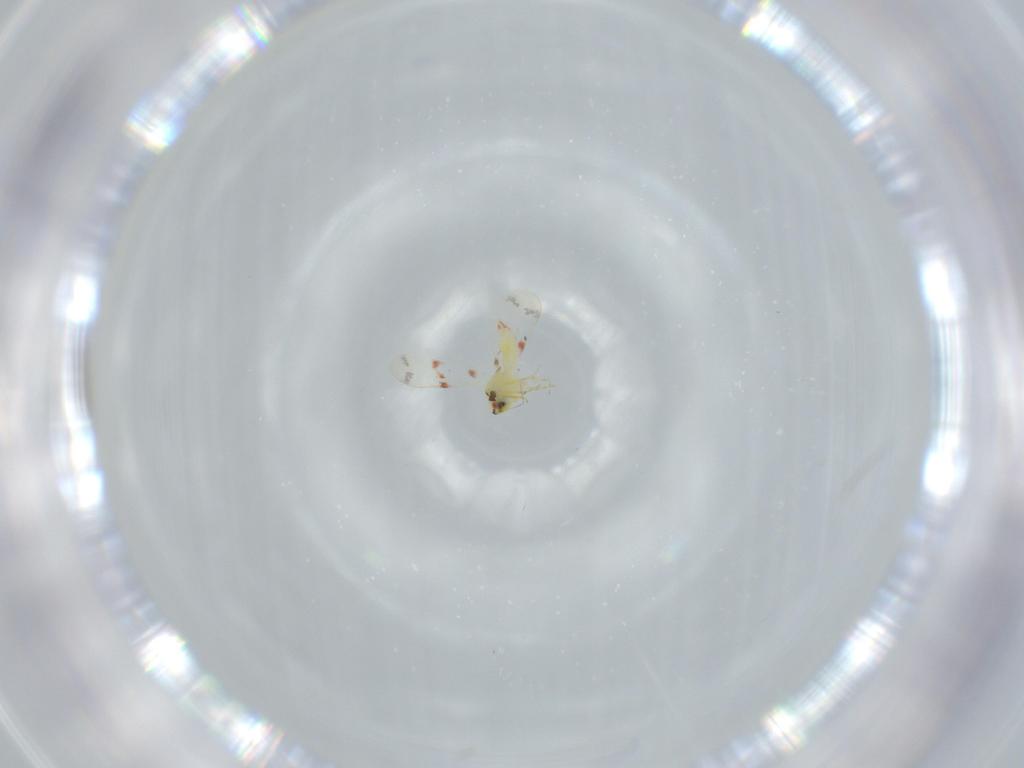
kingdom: Animalia
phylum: Arthropoda
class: Insecta
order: Hemiptera
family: Aleyrodidae
